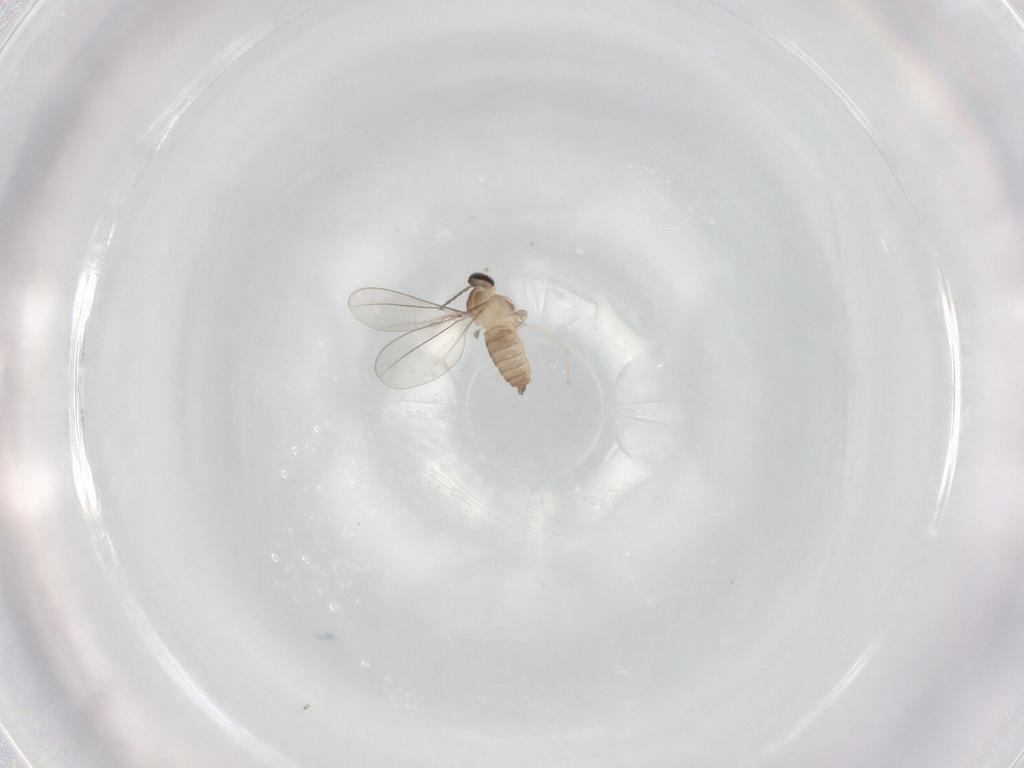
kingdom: Animalia
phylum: Arthropoda
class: Insecta
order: Diptera
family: Cecidomyiidae
